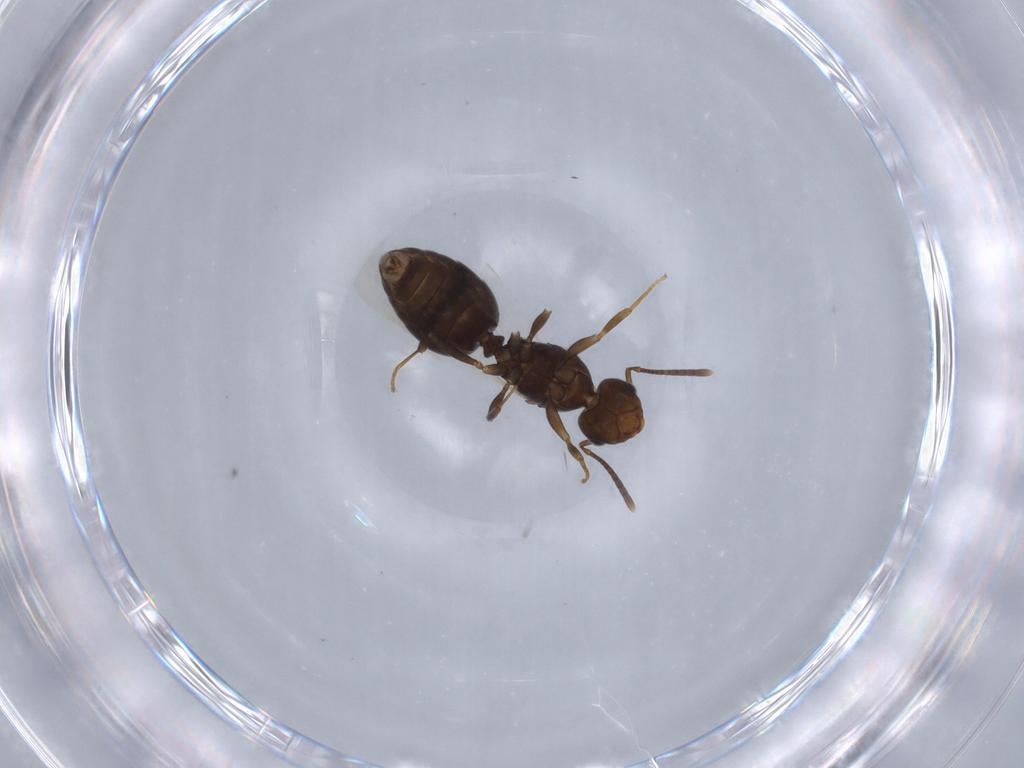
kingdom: Animalia
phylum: Arthropoda
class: Insecta
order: Hymenoptera
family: Formicidae
